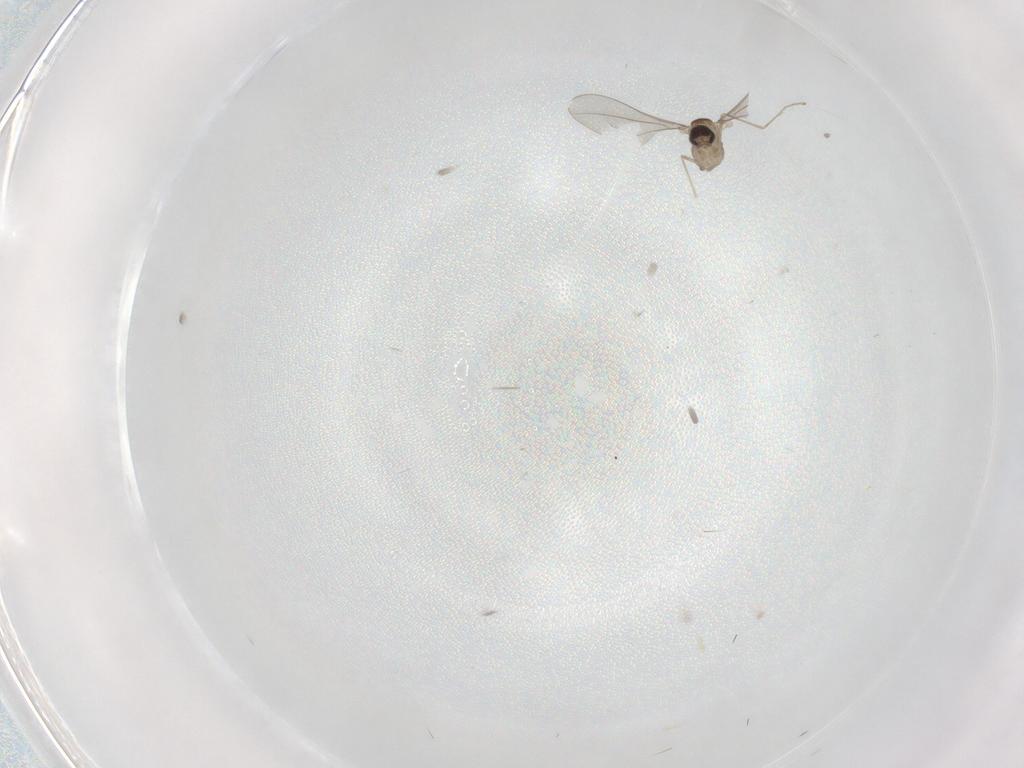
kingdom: Animalia
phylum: Arthropoda
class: Insecta
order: Diptera
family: Cecidomyiidae
